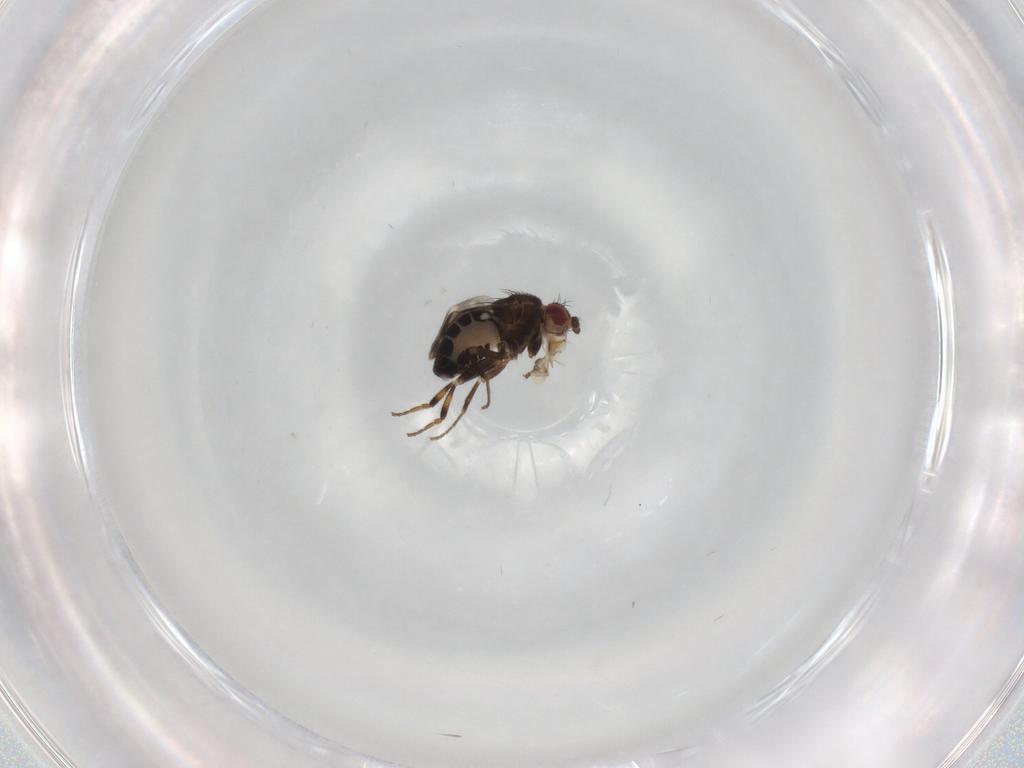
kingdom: Animalia
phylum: Arthropoda
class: Insecta
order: Diptera
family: Sphaeroceridae
